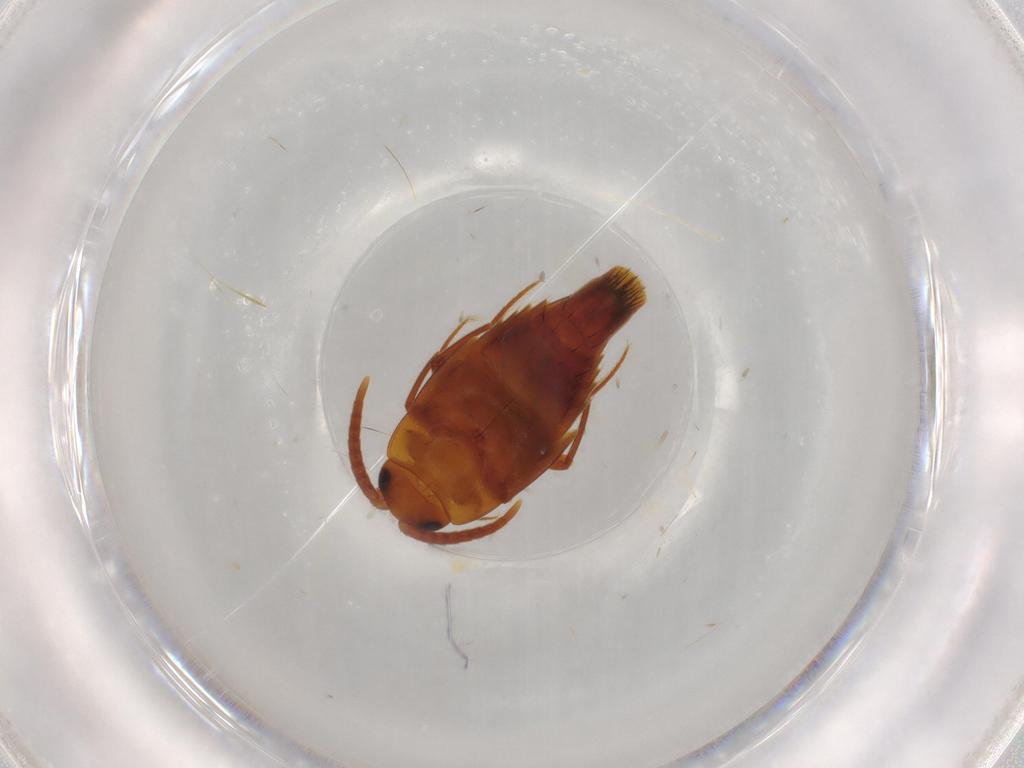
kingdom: Animalia
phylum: Arthropoda
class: Insecta
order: Coleoptera
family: Staphylinidae
